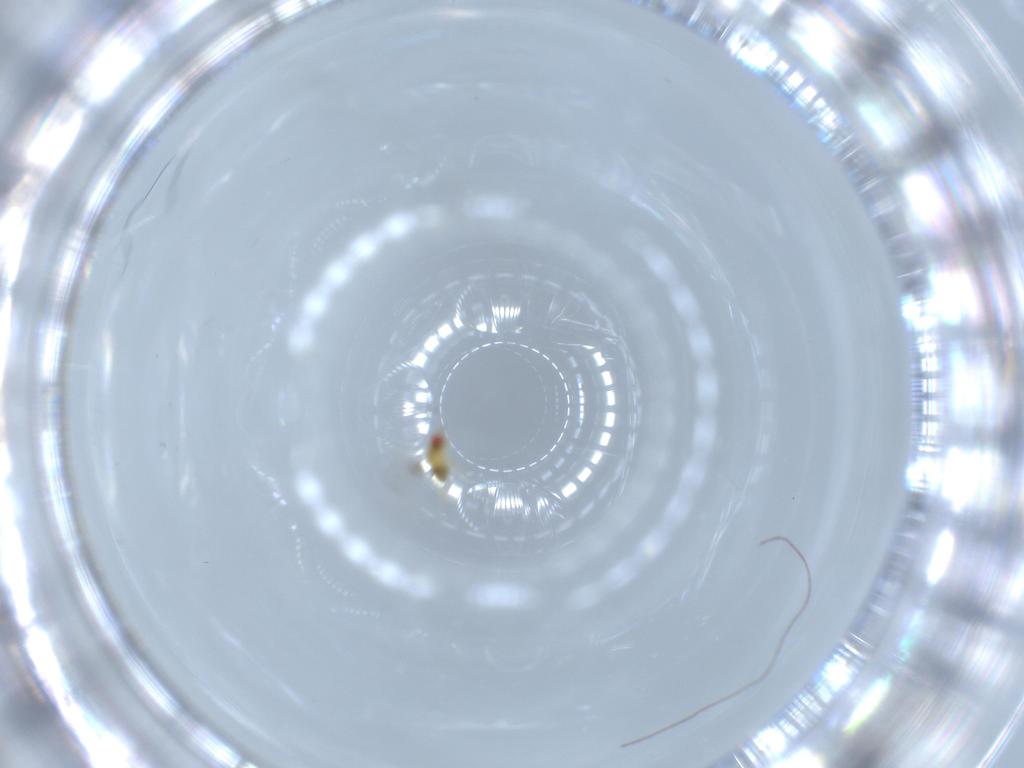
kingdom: Animalia
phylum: Arthropoda
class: Insecta
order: Hymenoptera
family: Trichogrammatidae
